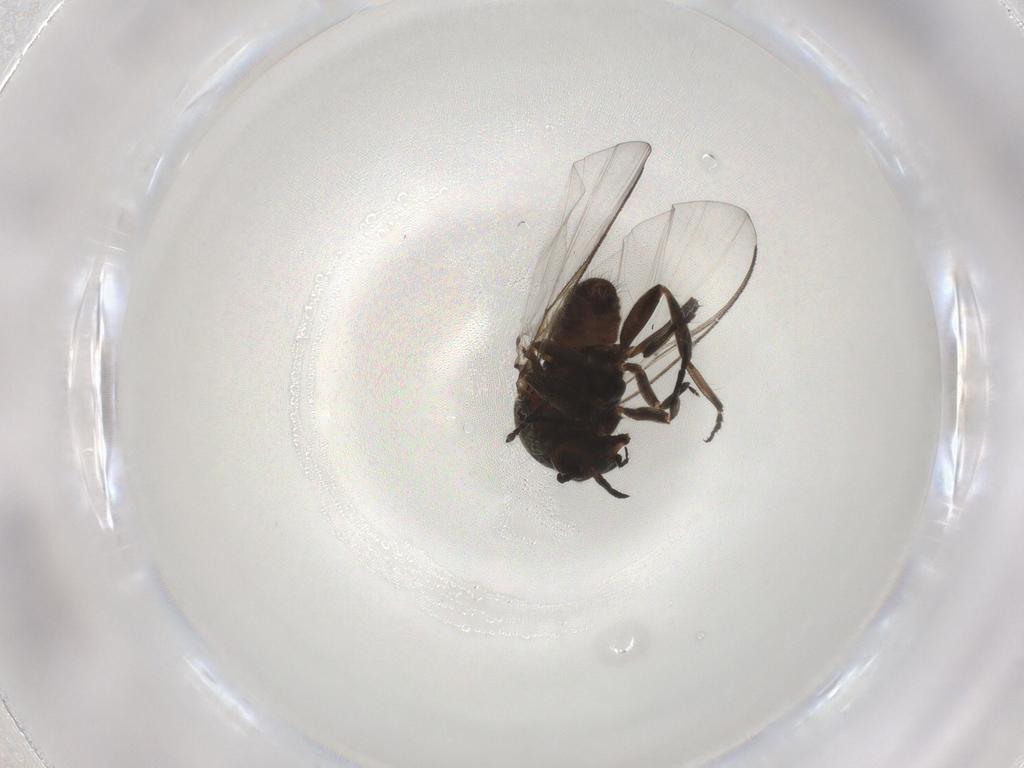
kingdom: Animalia
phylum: Arthropoda
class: Insecta
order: Diptera
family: Simuliidae
